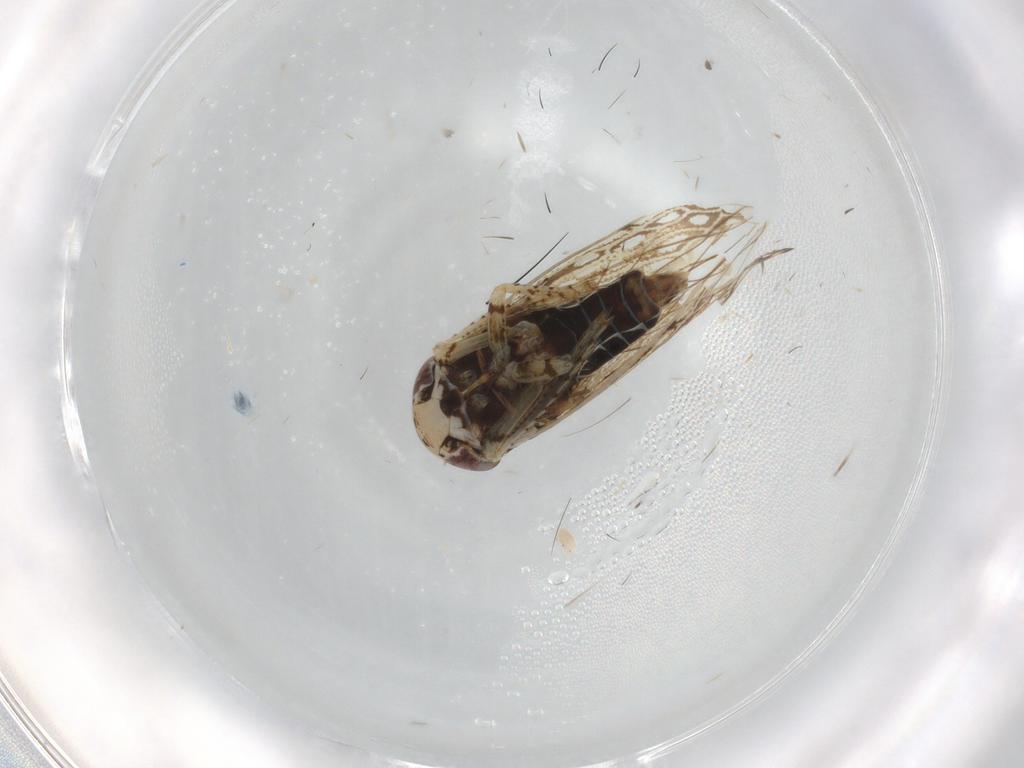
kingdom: Animalia
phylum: Arthropoda
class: Insecta
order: Hemiptera
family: Cicadellidae
